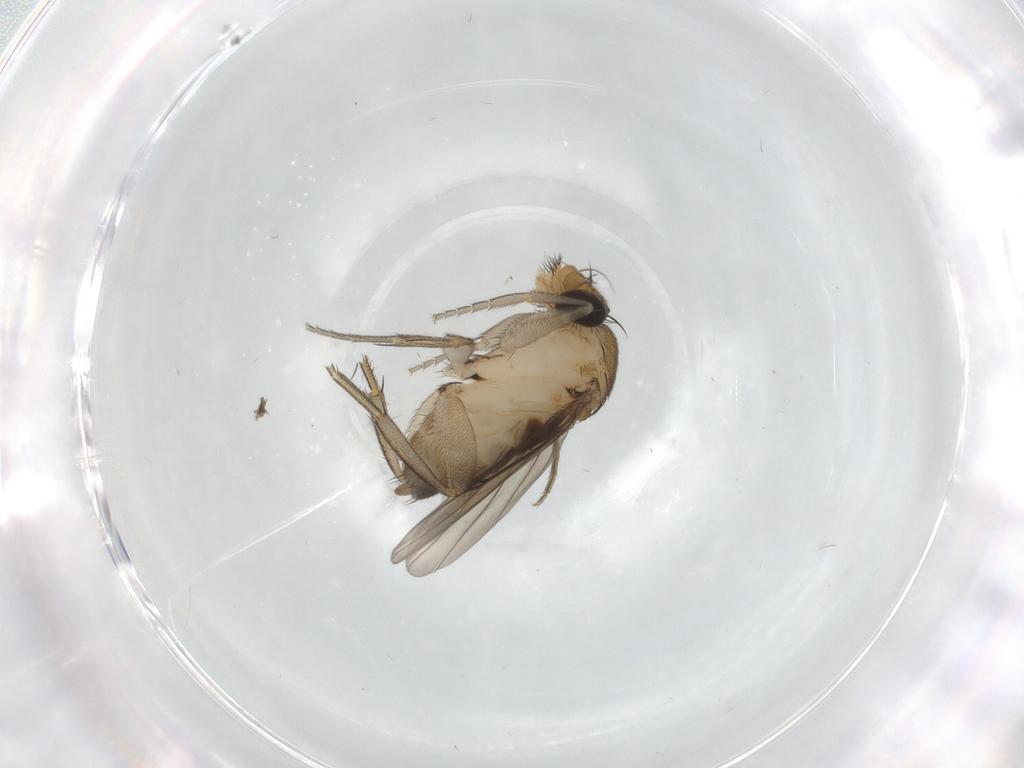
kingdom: Animalia
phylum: Arthropoda
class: Insecta
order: Diptera
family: Phoridae
